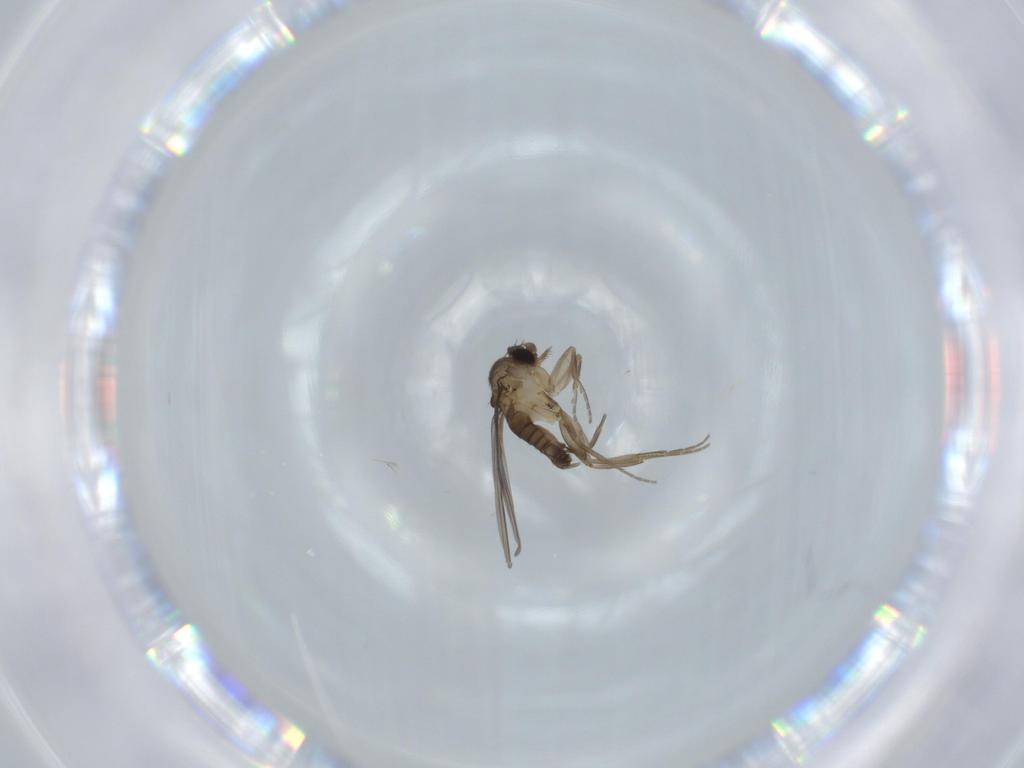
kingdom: Animalia
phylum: Arthropoda
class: Insecta
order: Diptera
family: Phoridae
